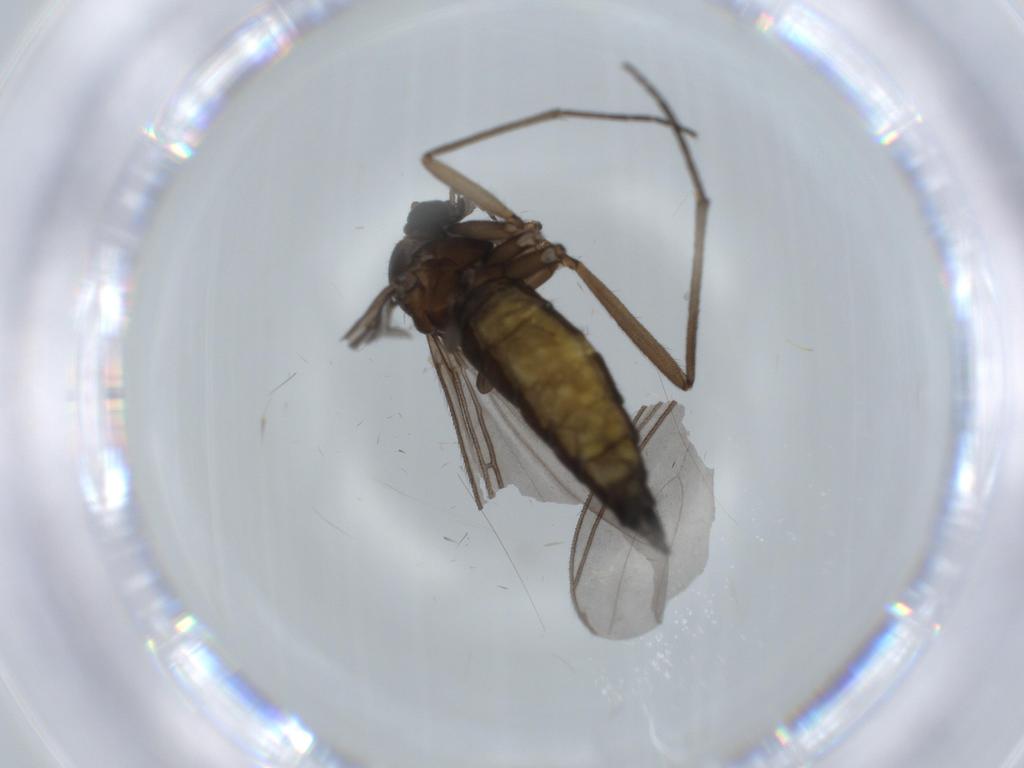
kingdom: Animalia
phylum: Arthropoda
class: Insecta
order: Diptera
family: Sciaridae
